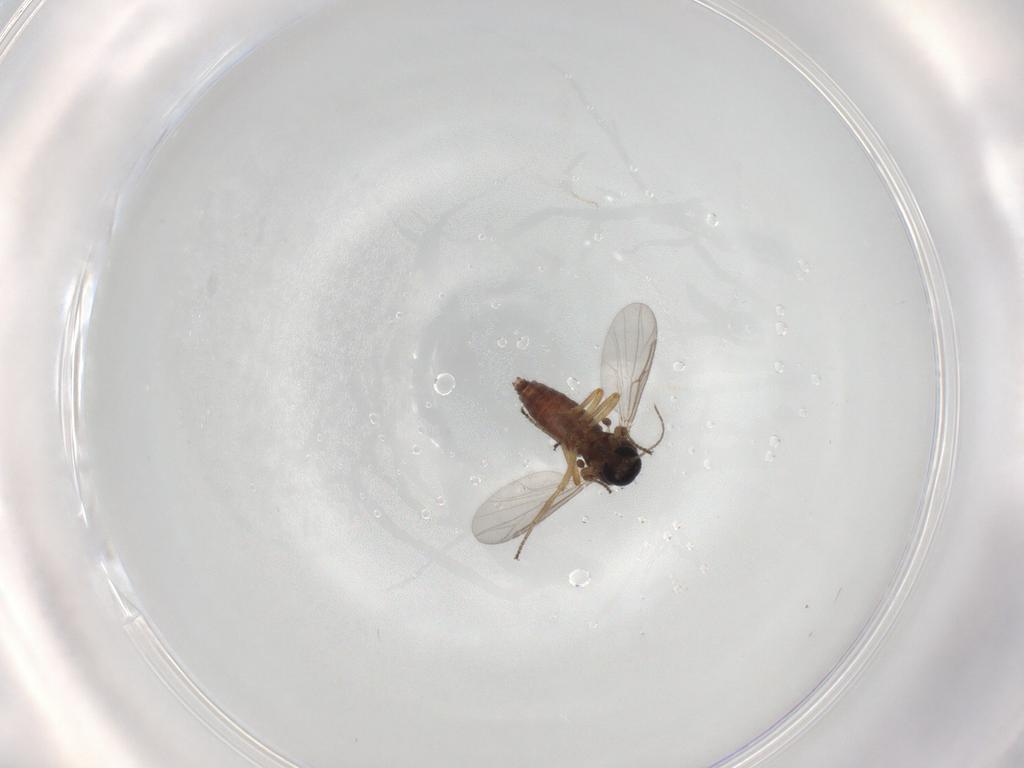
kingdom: Animalia
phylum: Arthropoda
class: Insecta
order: Diptera
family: Ceratopogonidae
